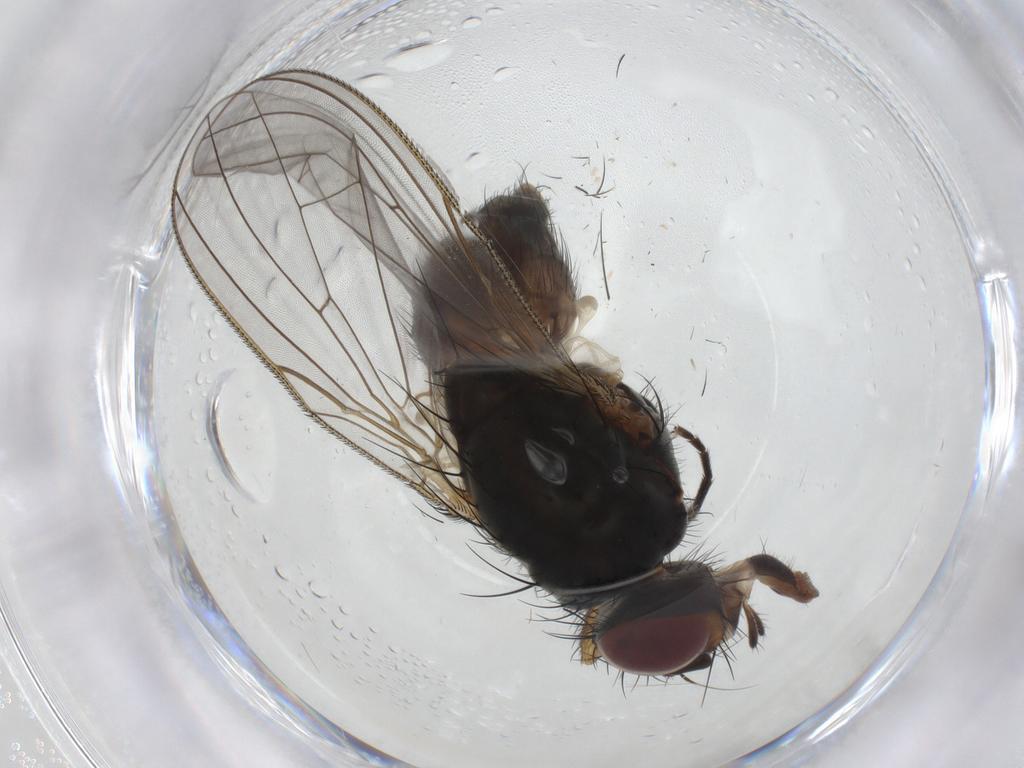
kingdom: Animalia
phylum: Arthropoda
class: Insecta
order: Diptera
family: Anthomyiidae
